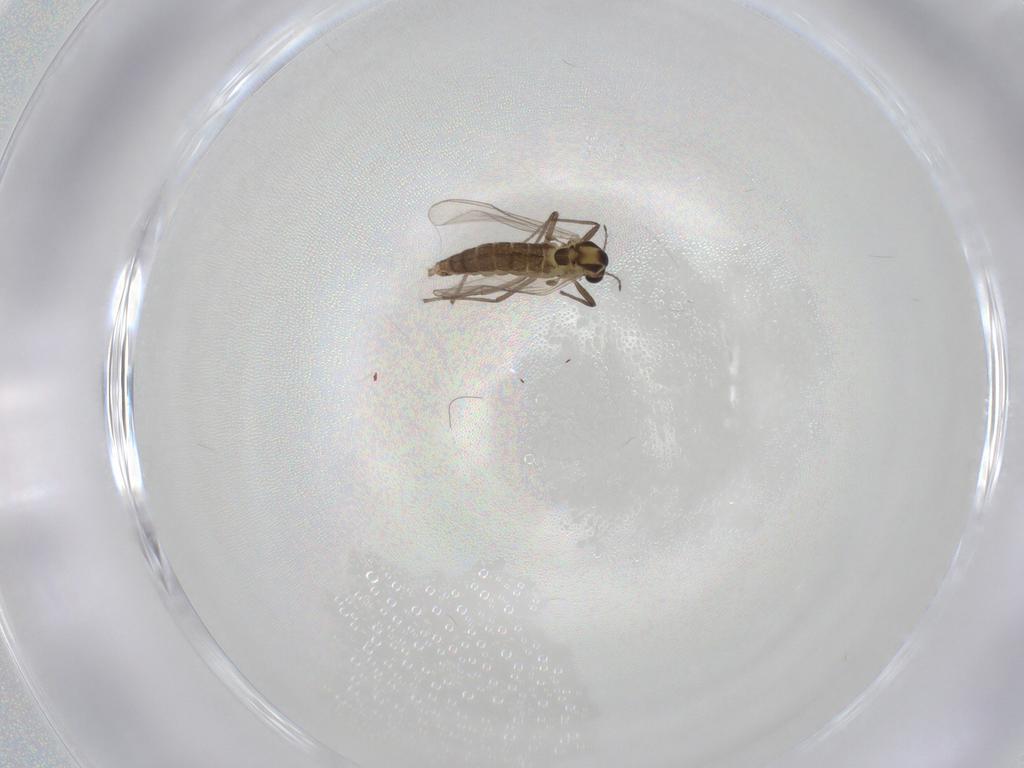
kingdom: Animalia
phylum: Arthropoda
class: Insecta
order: Diptera
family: Chironomidae
